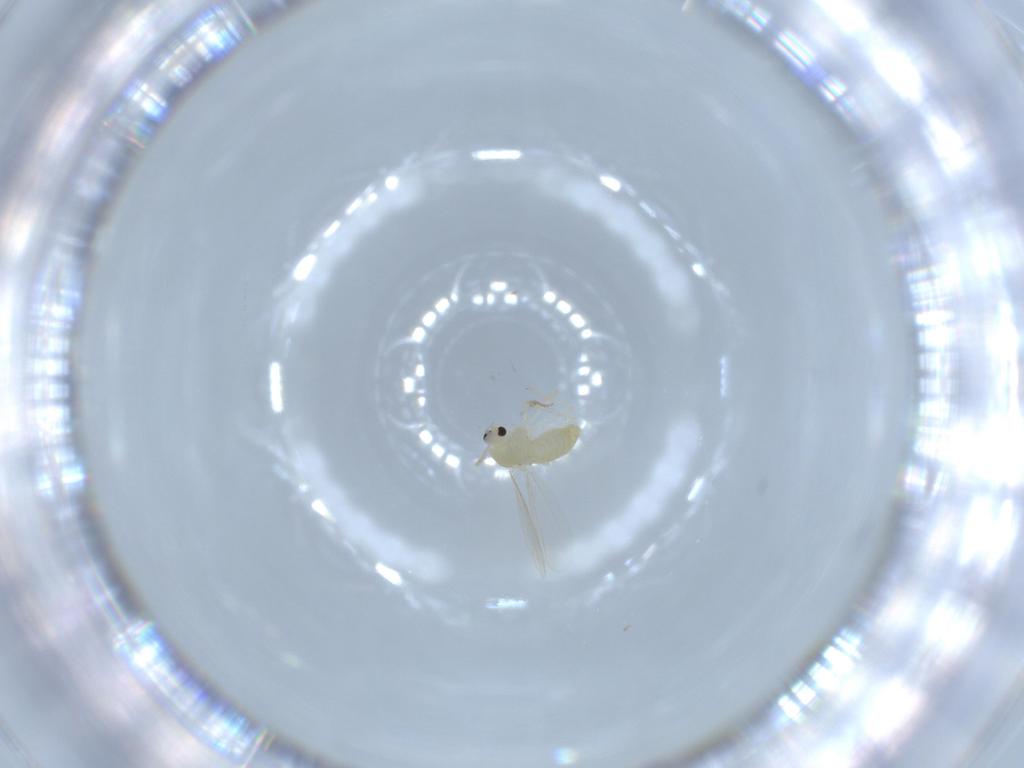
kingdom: Animalia
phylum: Arthropoda
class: Insecta
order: Diptera
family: Chironomidae
